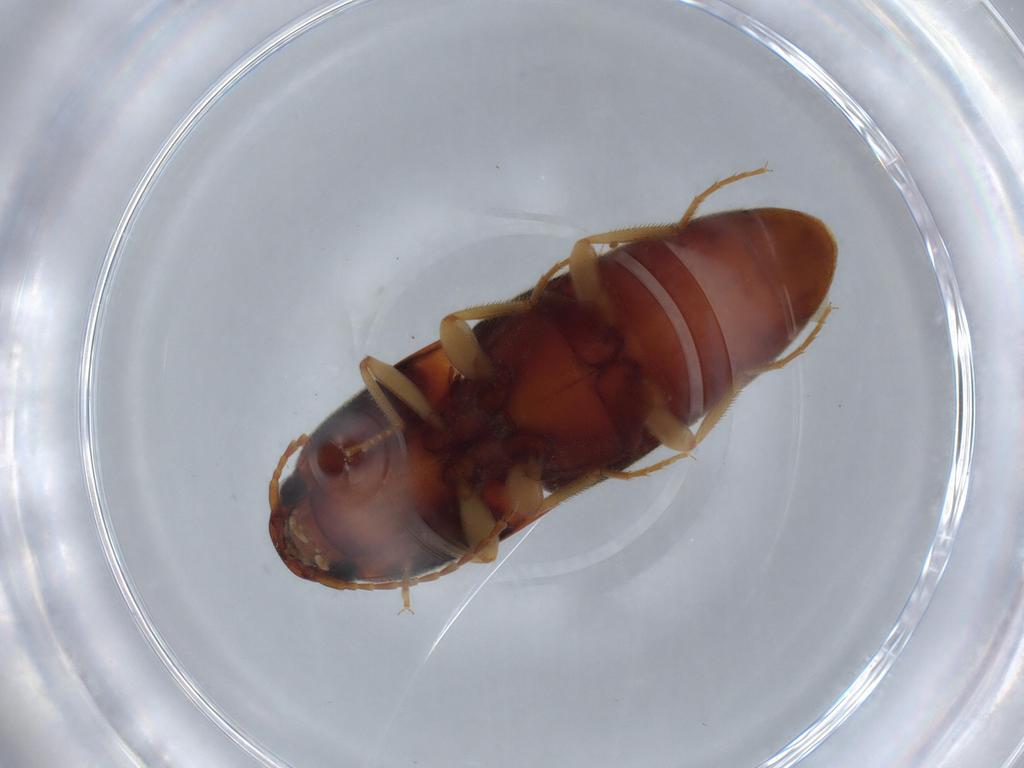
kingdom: Animalia
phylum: Arthropoda
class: Insecta
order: Coleoptera
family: Elateridae
